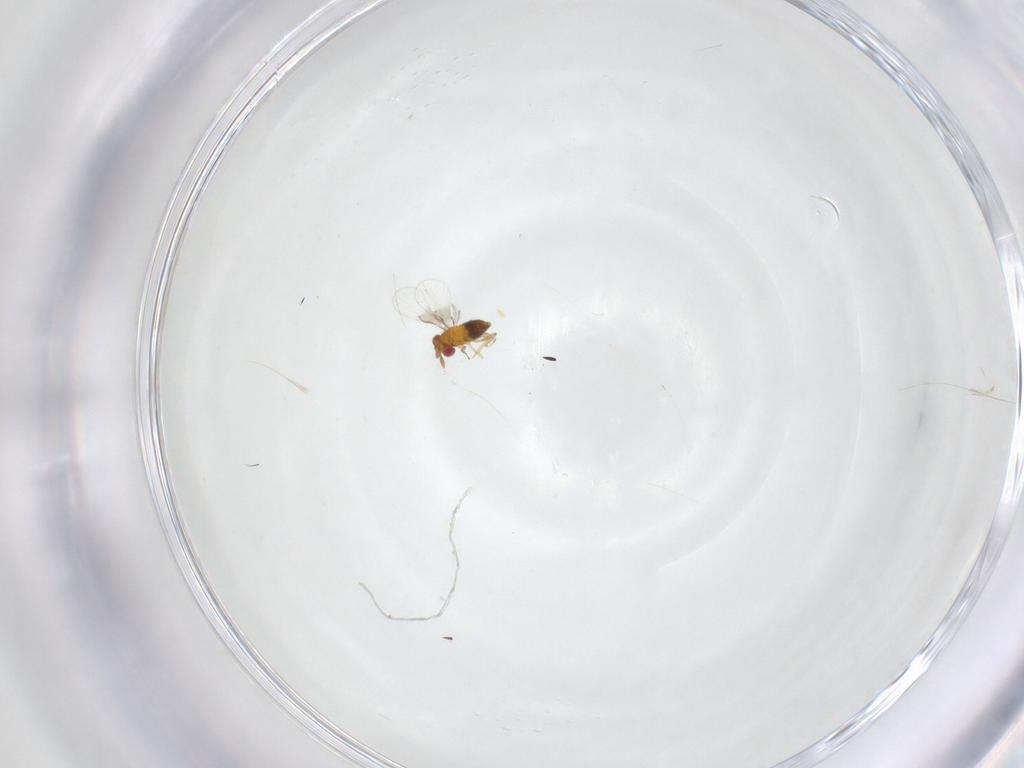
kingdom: Animalia
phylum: Arthropoda
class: Insecta
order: Hymenoptera
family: Trichogrammatidae
